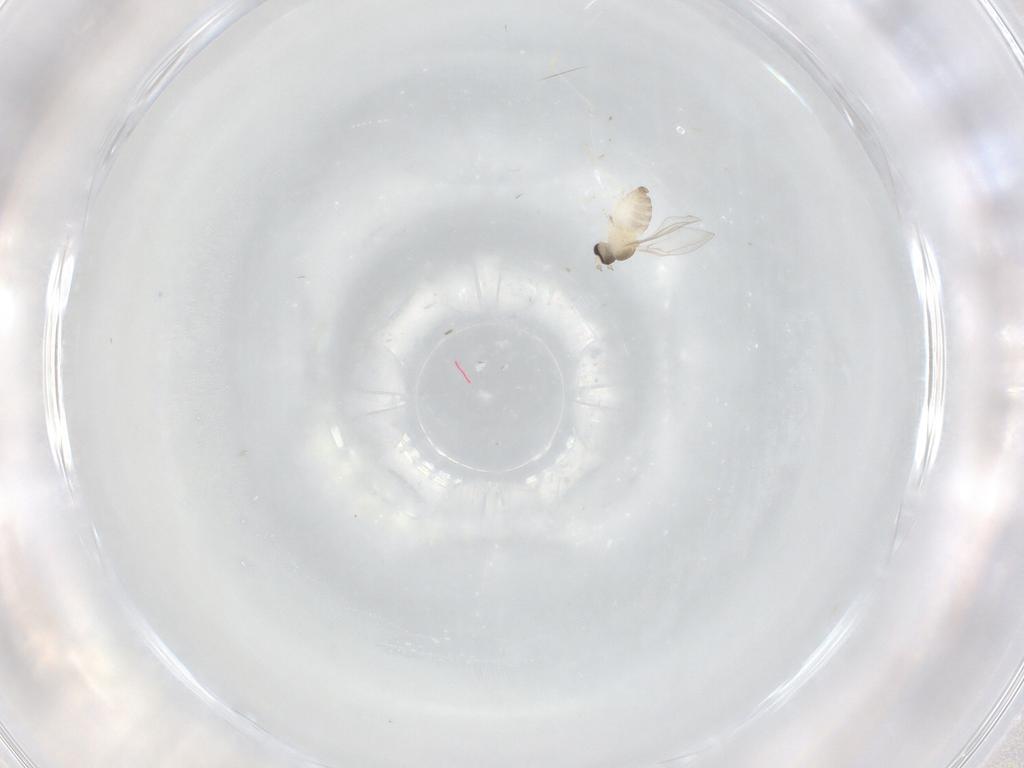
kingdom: Animalia
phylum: Arthropoda
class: Insecta
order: Diptera
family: Cecidomyiidae
